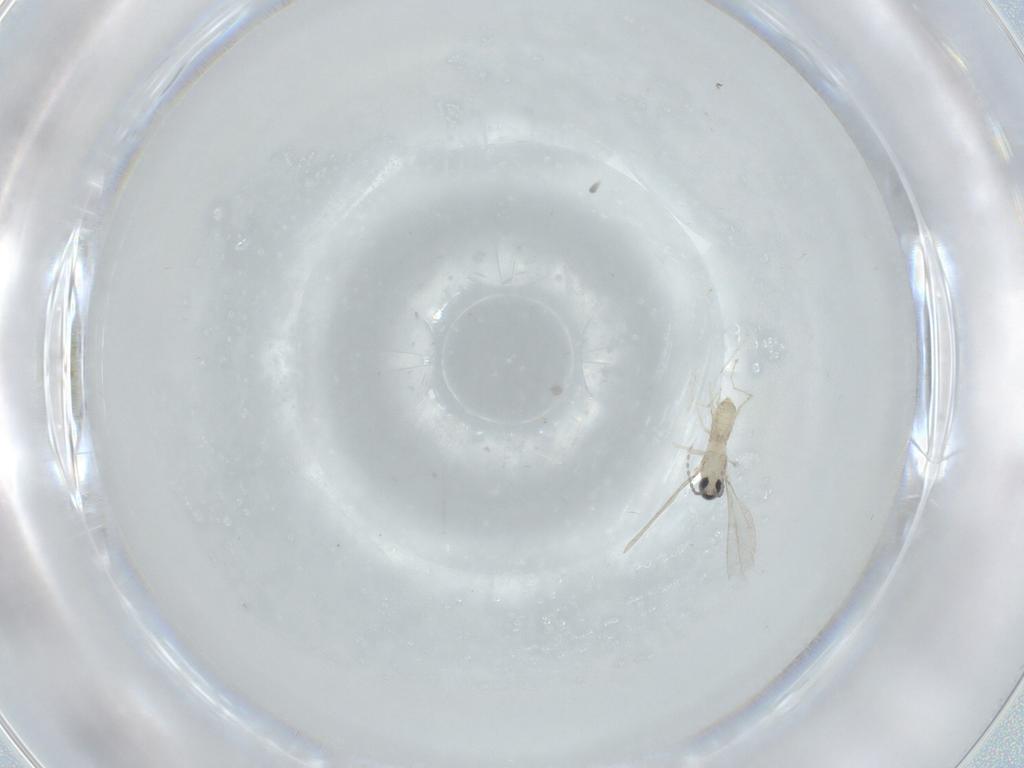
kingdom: Animalia
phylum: Arthropoda
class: Insecta
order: Diptera
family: Cecidomyiidae
